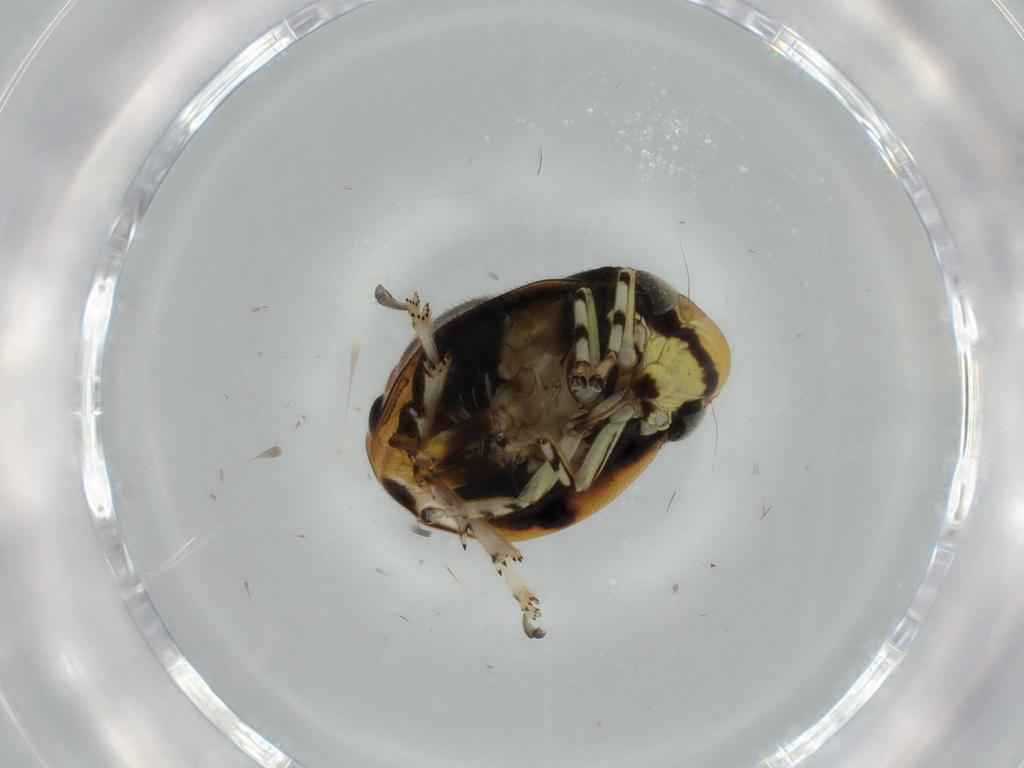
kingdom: Animalia
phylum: Arthropoda
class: Insecta
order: Hemiptera
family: Clastopteridae
